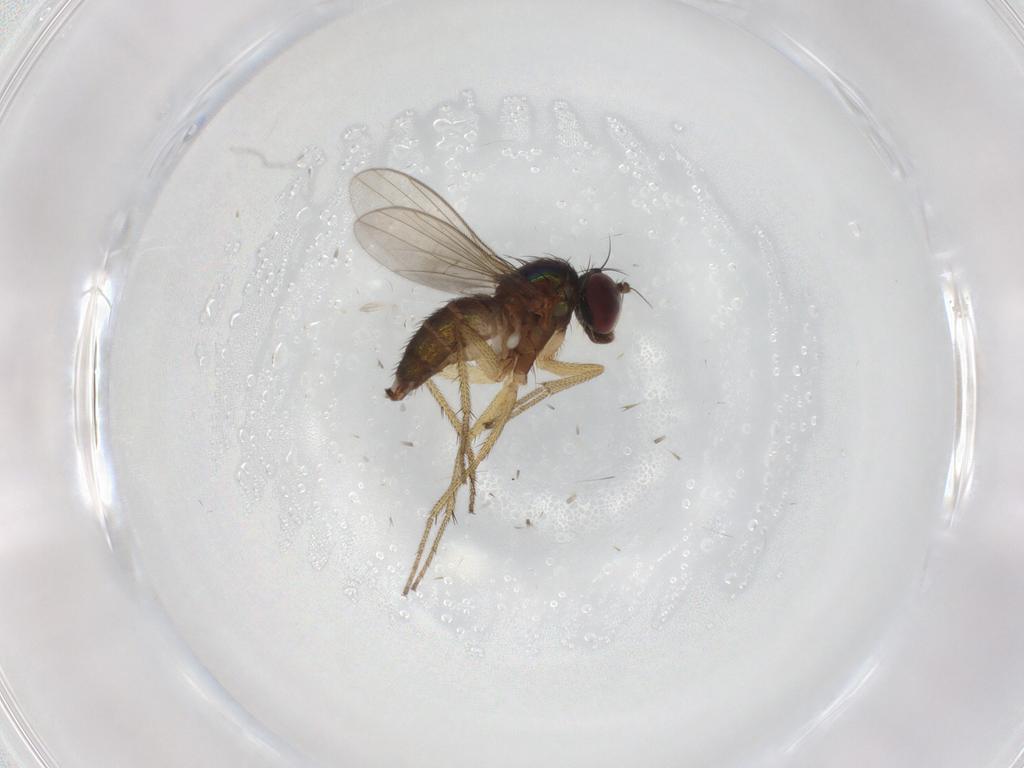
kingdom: Animalia
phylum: Arthropoda
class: Insecta
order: Diptera
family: Dolichopodidae
